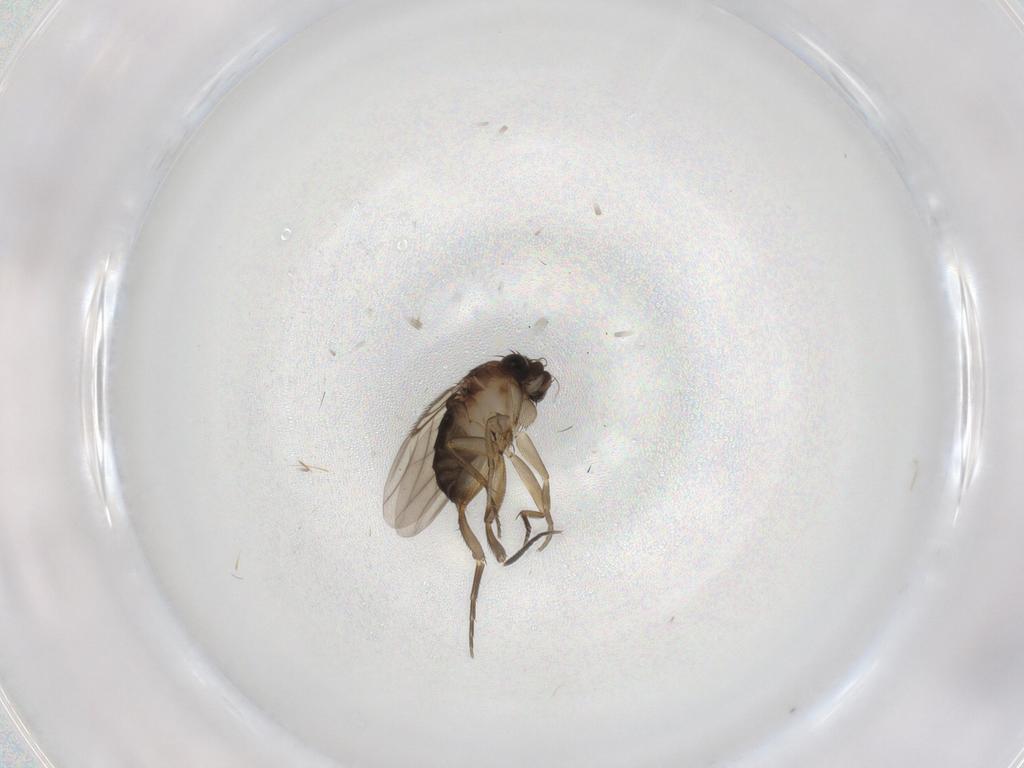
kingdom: Animalia
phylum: Arthropoda
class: Insecta
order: Diptera
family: Phoridae
